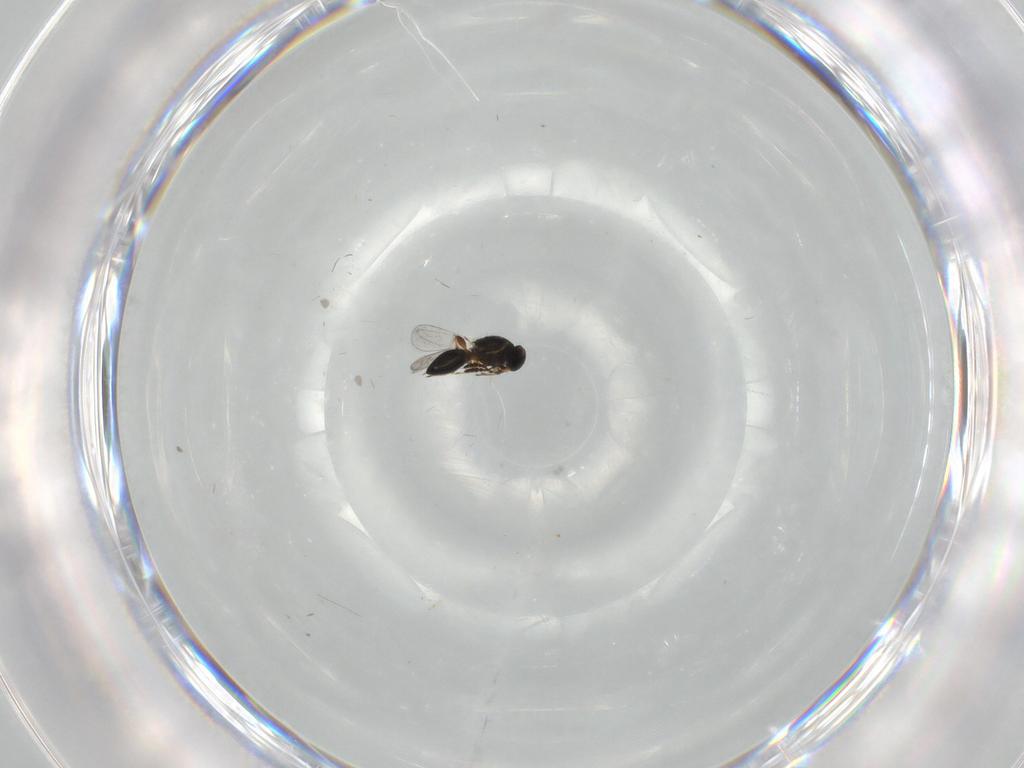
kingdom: Animalia
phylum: Arthropoda
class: Insecta
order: Hymenoptera
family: Platygastridae
